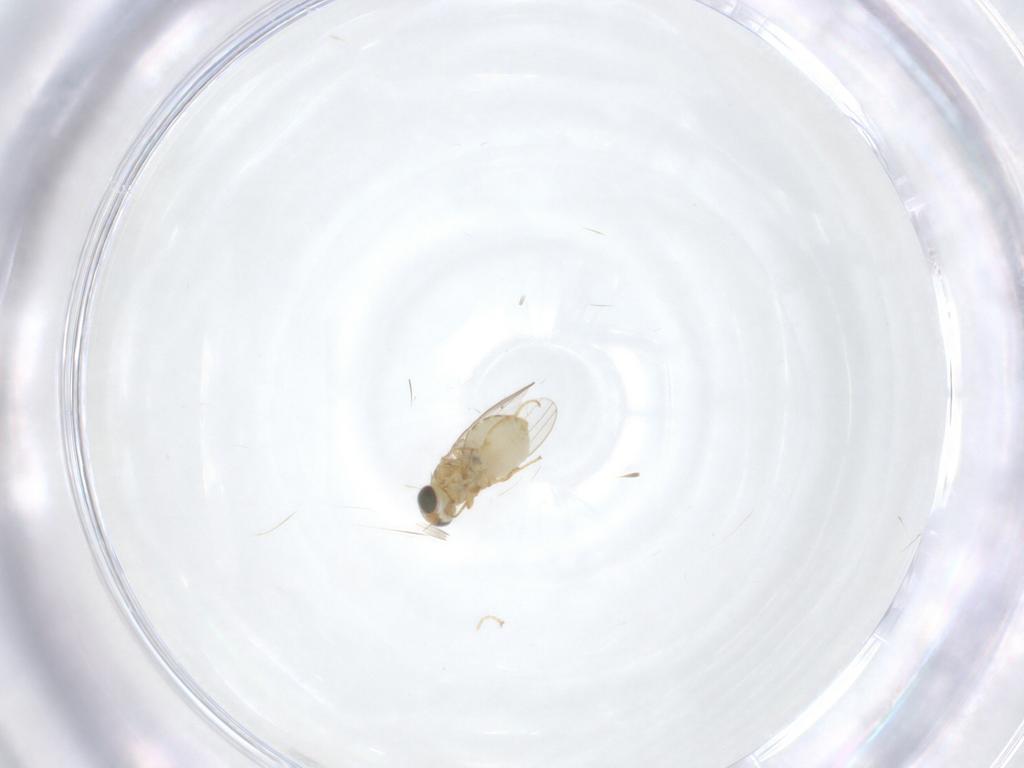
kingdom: Animalia
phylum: Arthropoda
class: Insecta
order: Diptera
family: Chyromyidae
